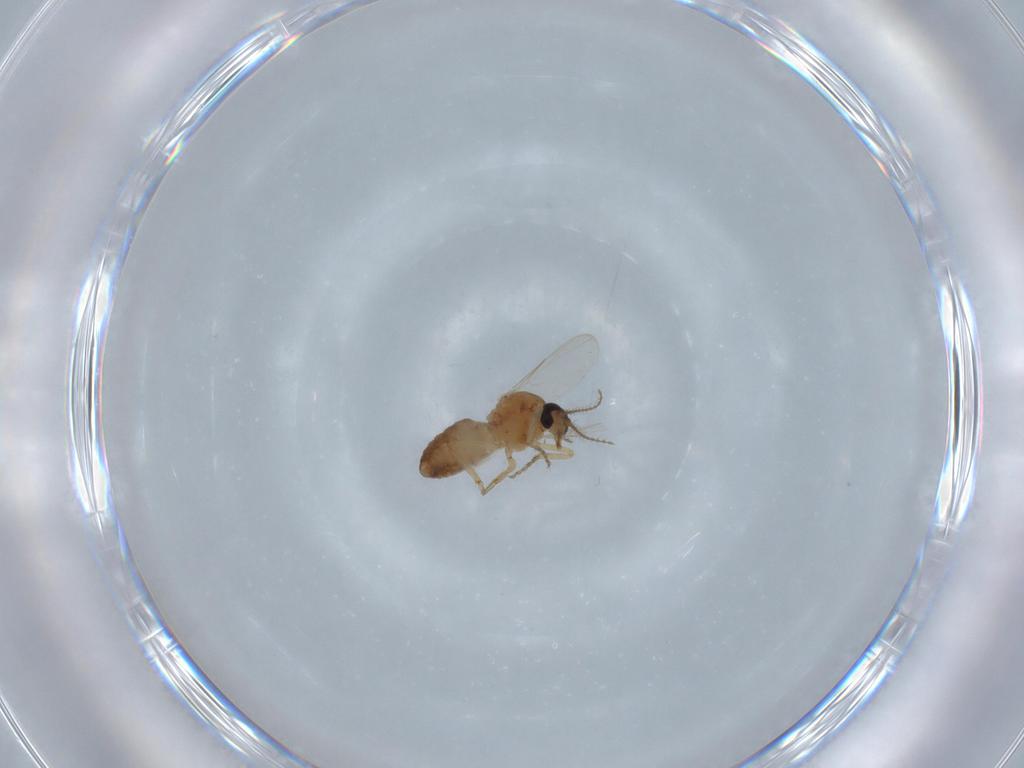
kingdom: Animalia
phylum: Arthropoda
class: Insecta
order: Diptera
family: Ceratopogonidae
